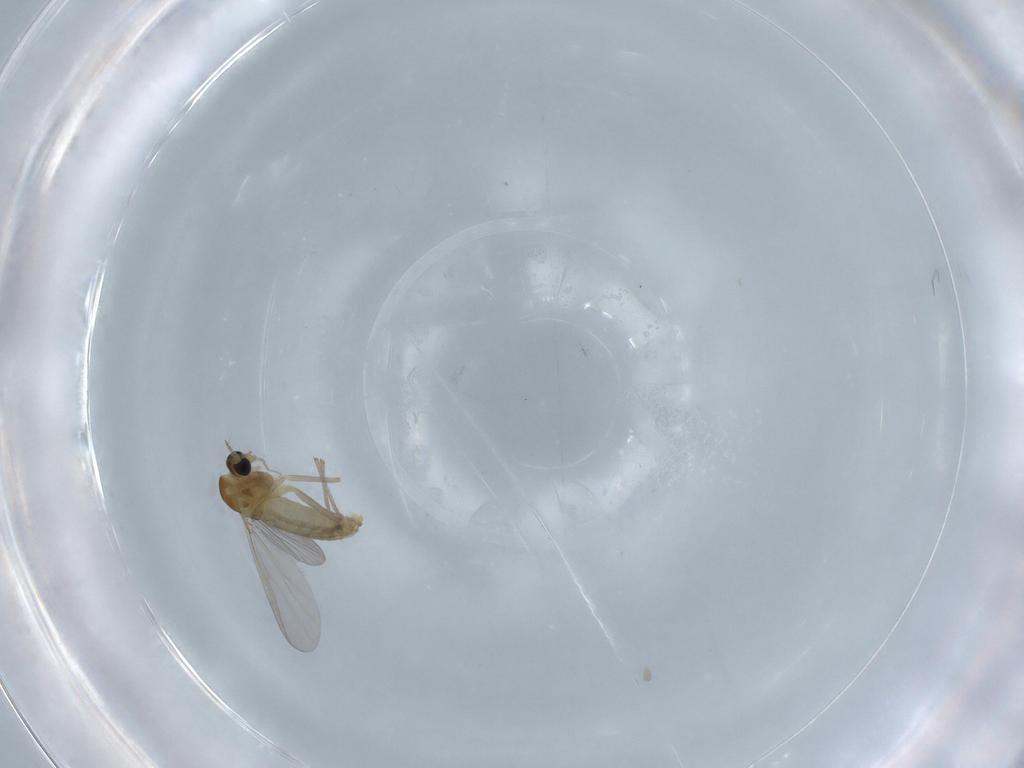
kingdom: Animalia
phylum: Arthropoda
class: Insecta
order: Diptera
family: Chironomidae
